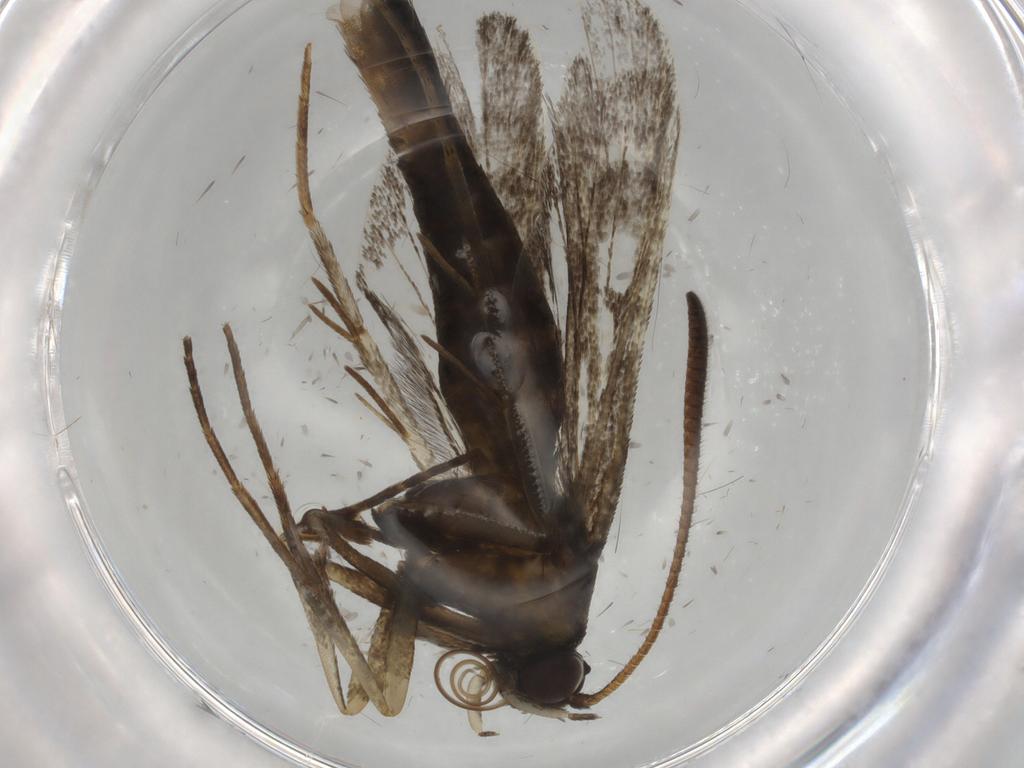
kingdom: Animalia
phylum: Arthropoda
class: Insecta
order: Lepidoptera
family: Sesiidae
